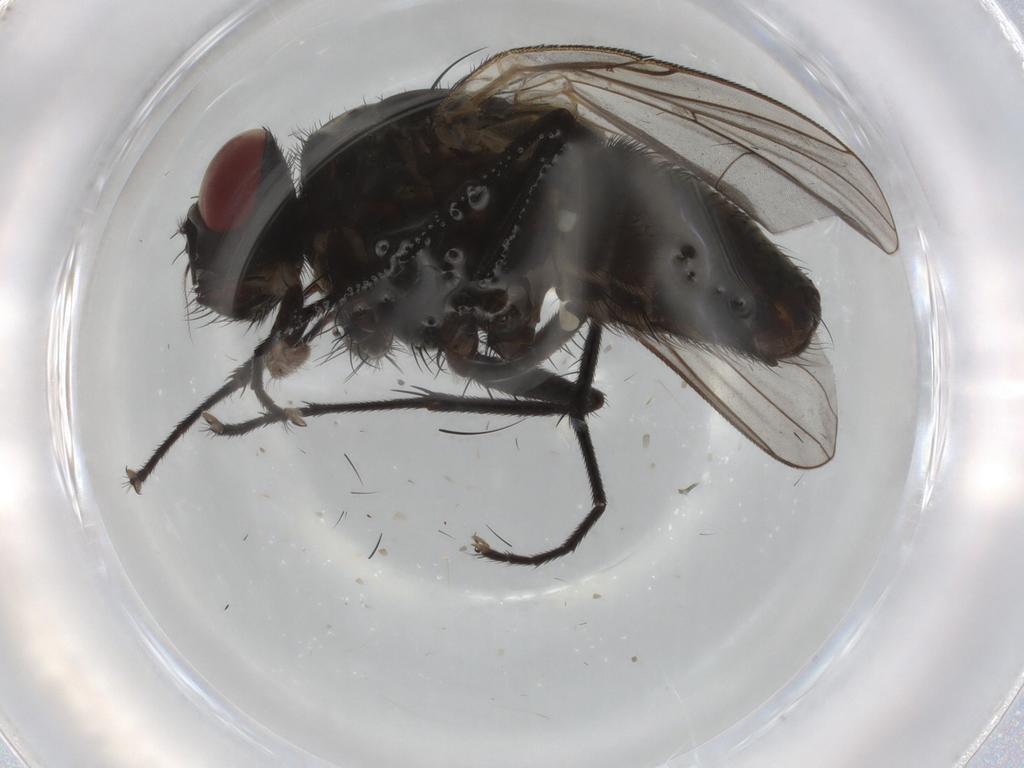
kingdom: Animalia
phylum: Arthropoda
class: Insecta
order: Diptera
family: Muscidae
